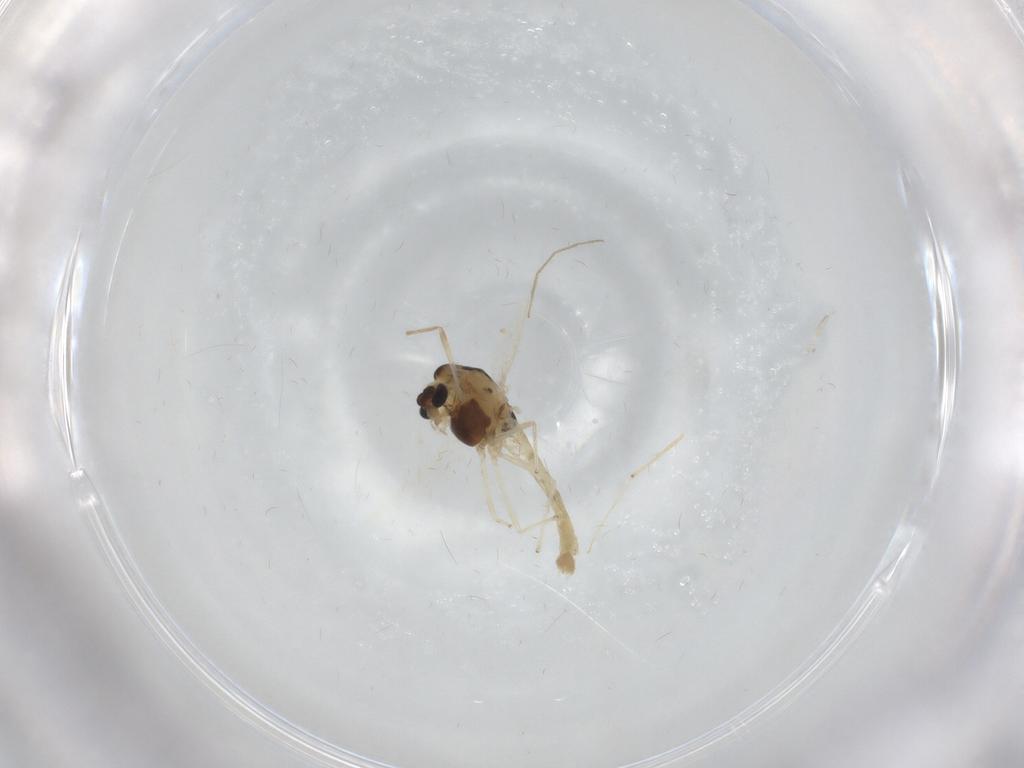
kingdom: Animalia
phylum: Arthropoda
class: Insecta
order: Diptera
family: Chironomidae
